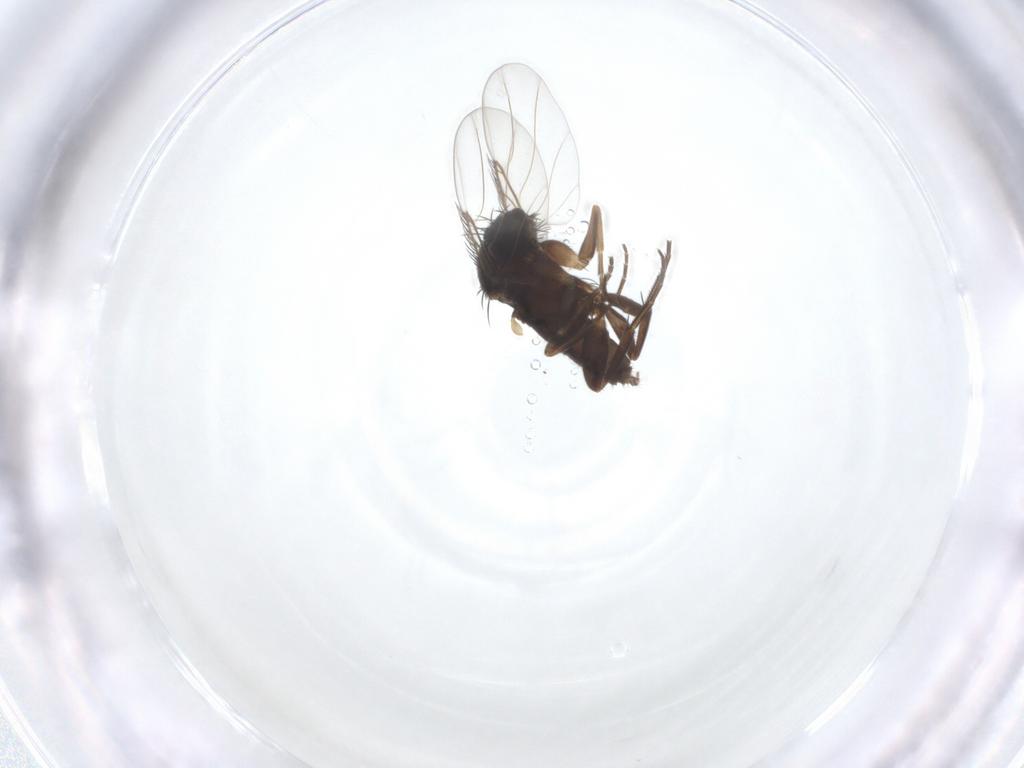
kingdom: Animalia
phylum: Arthropoda
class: Insecta
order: Diptera
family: Phoridae
